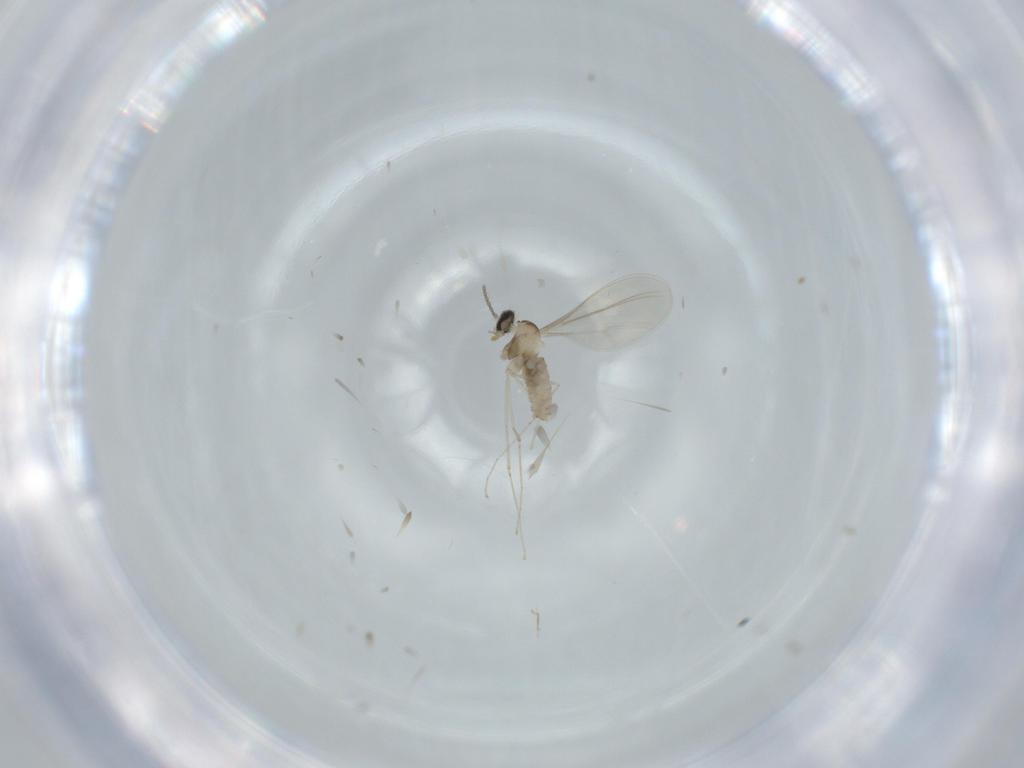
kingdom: Animalia
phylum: Arthropoda
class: Insecta
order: Diptera
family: Cecidomyiidae
